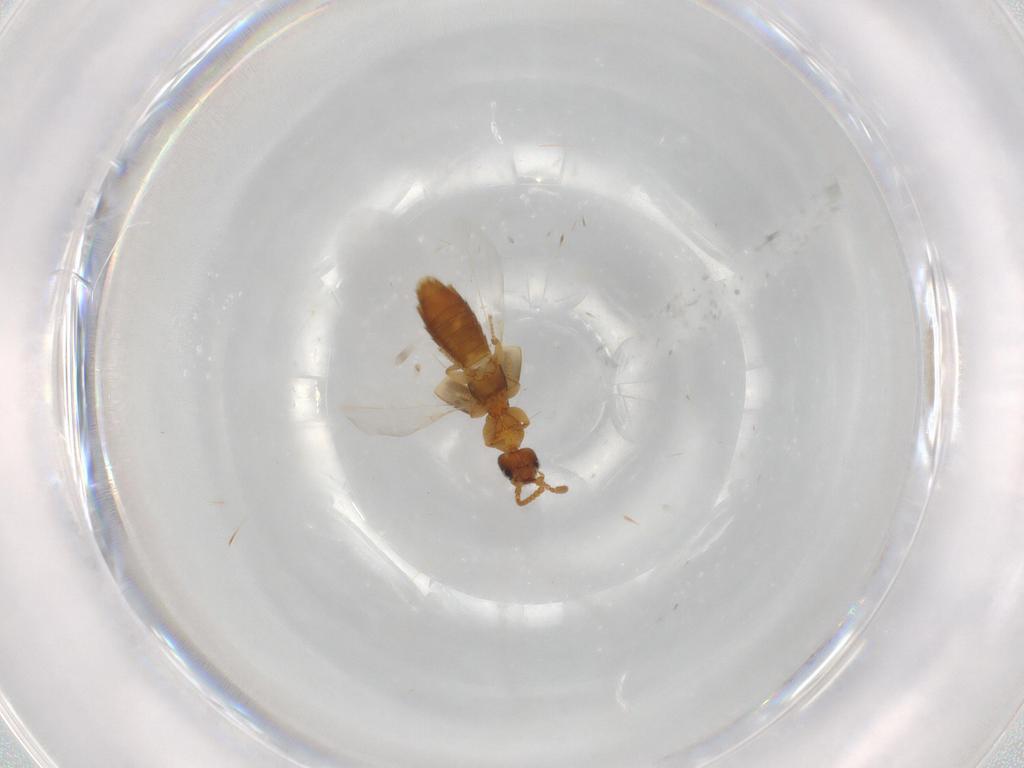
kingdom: Animalia
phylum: Arthropoda
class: Insecta
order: Coleoptera
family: Staphylinidae
